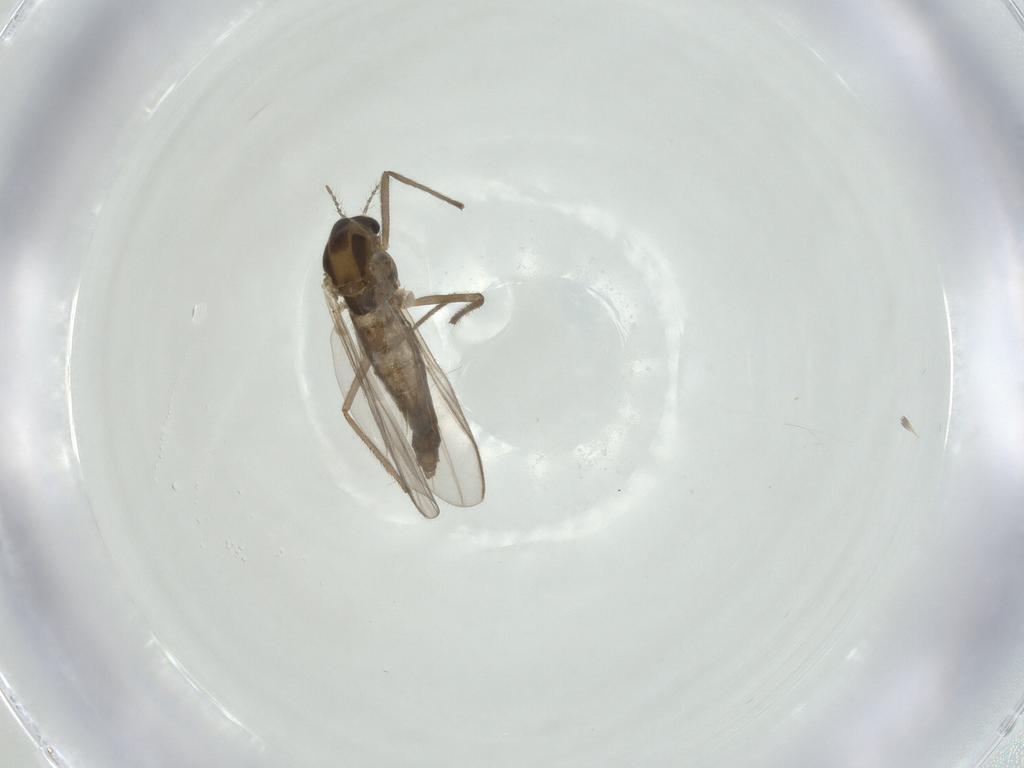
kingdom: Animalia
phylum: Arthropoda
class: Insecta
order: Diptera
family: Chironomidae
